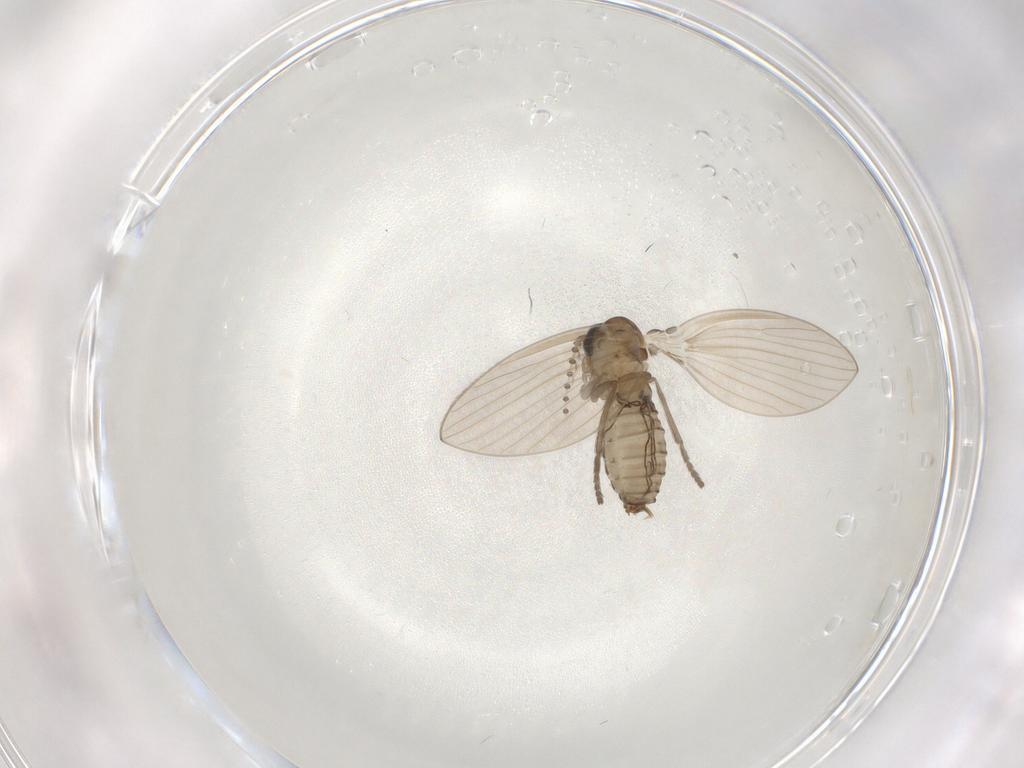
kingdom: Animalia
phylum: Arthropoda
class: Insecta
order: Diptera
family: Psychodidae
